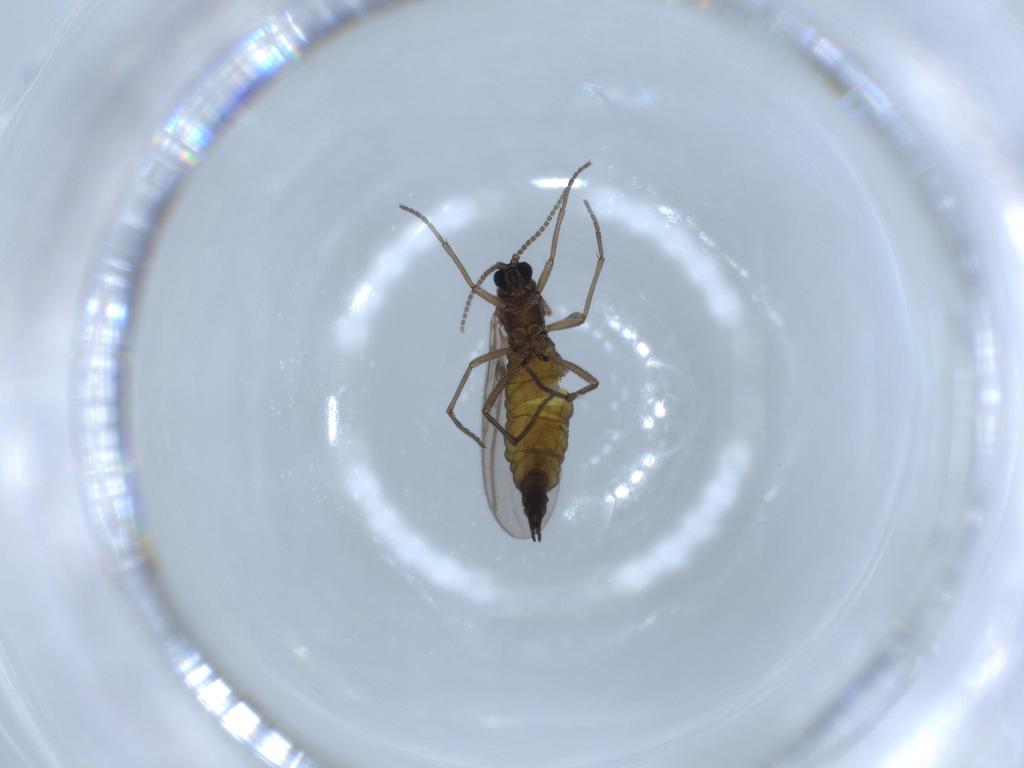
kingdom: Animalia
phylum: Arthropoda
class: Insecta
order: Diptera
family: Sciaridae
